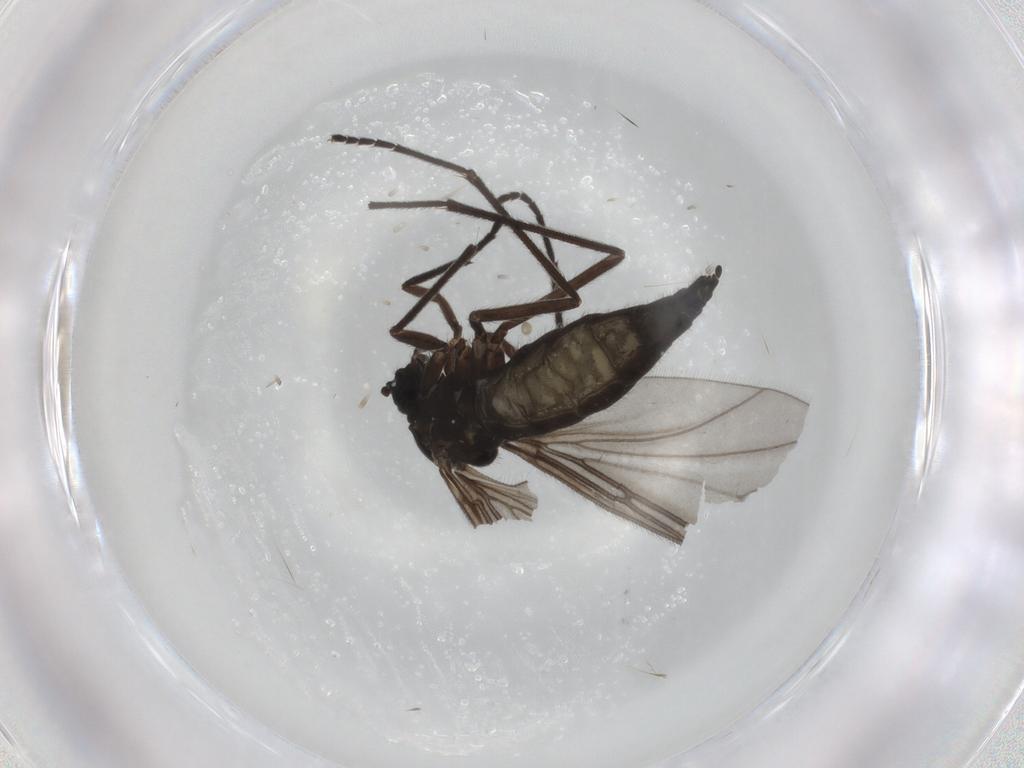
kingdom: Animalia
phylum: Arthropoda
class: Insecta
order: Diptera
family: Sciaridae
